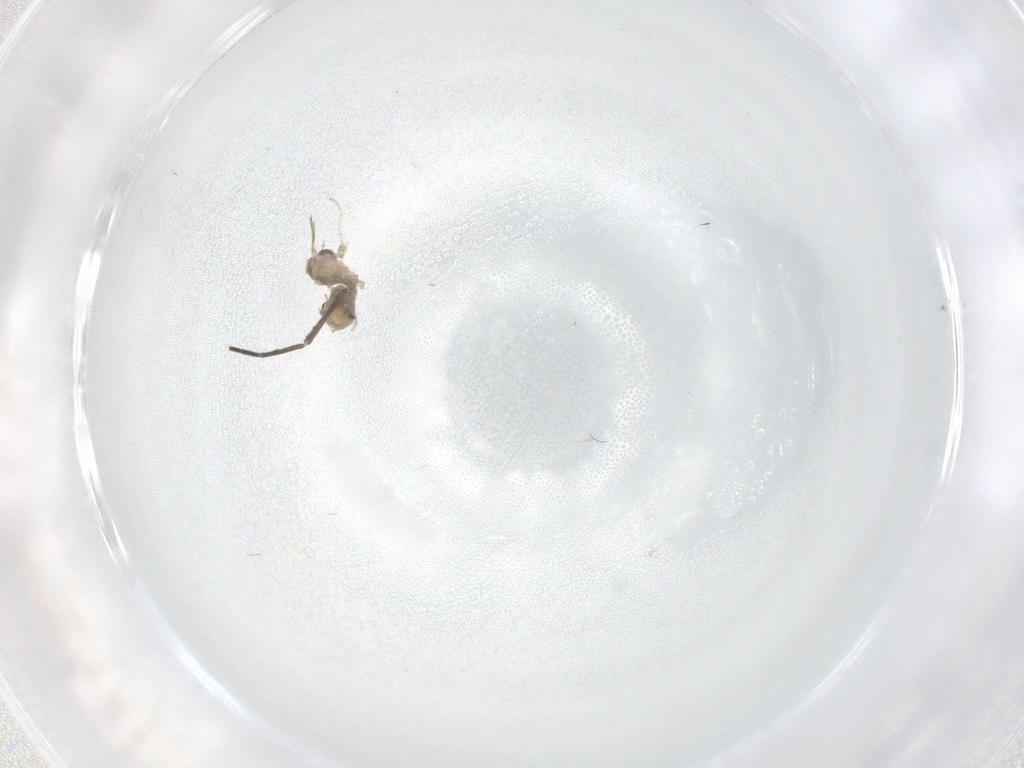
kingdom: Animalia
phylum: Arthropoda
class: Insecta
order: Diptera
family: Cecidomyiidae
